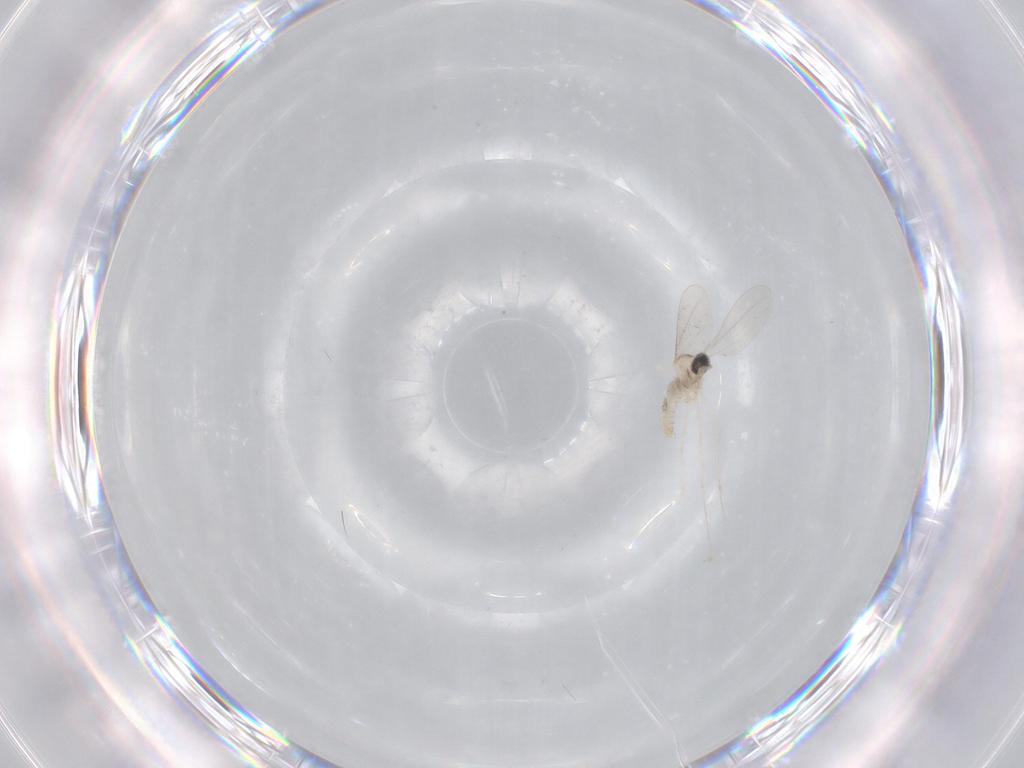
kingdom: Animalia
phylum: Arthropoda
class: Insecta
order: Diptera
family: Cecidomyiidae
